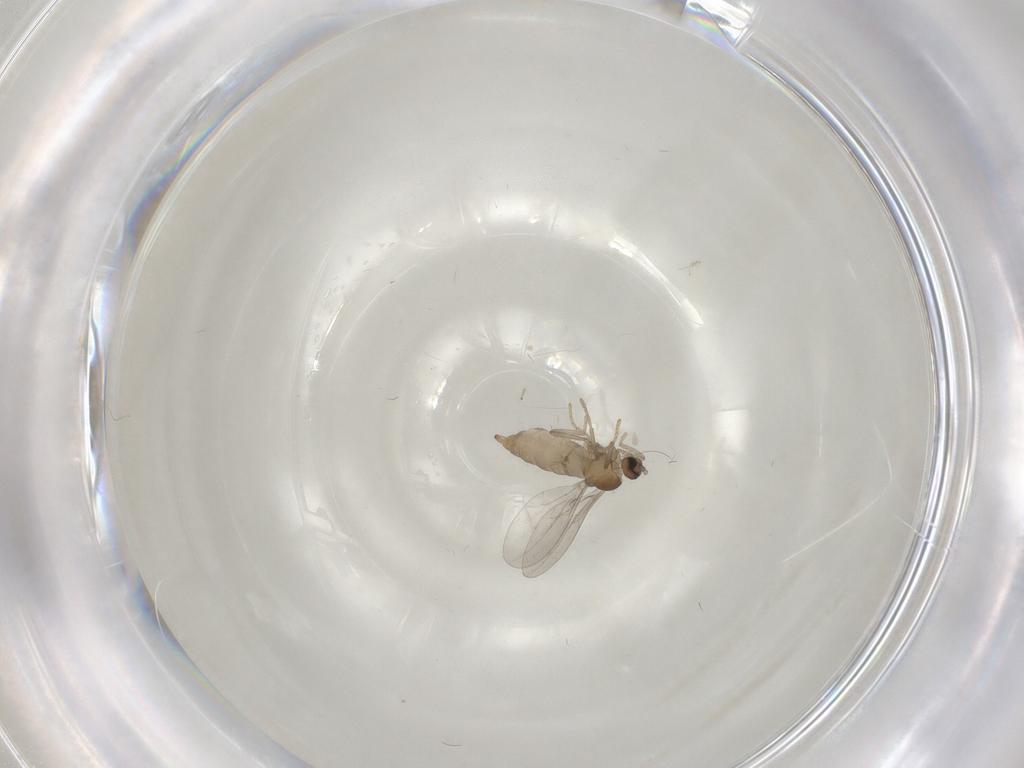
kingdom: Animalia
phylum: Arthropoda
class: Insecta
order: Diptera
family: Cecidomyiidae
